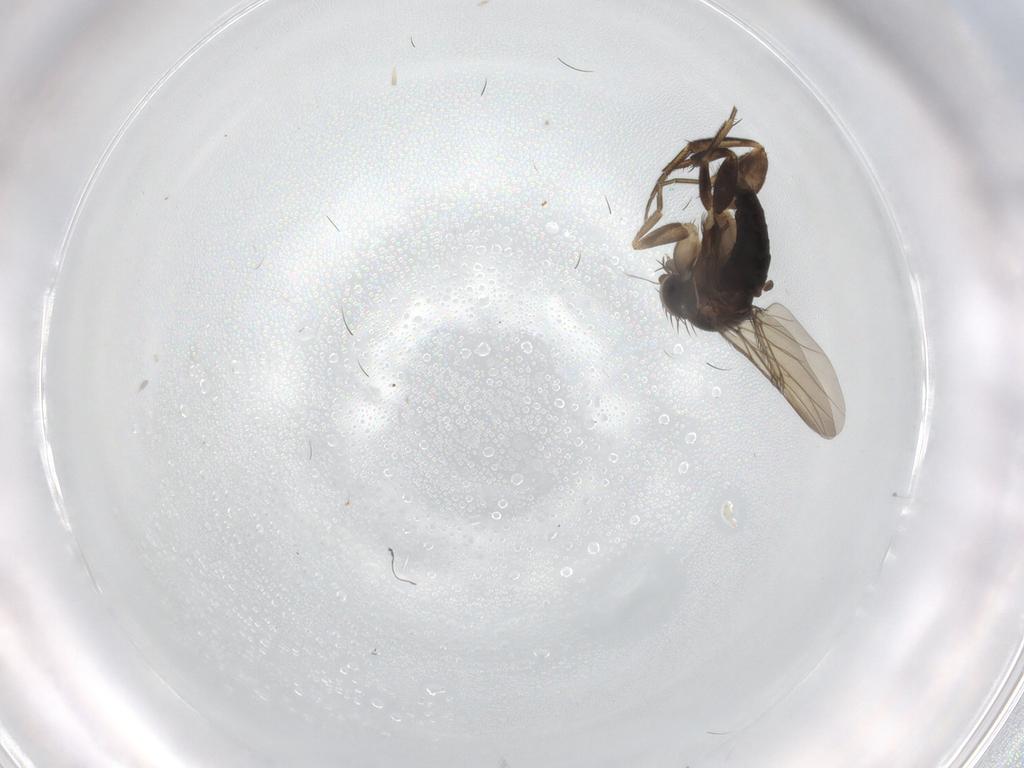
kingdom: Animalia
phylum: Arthropoda
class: Insecta
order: Diptera
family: Phoridae
